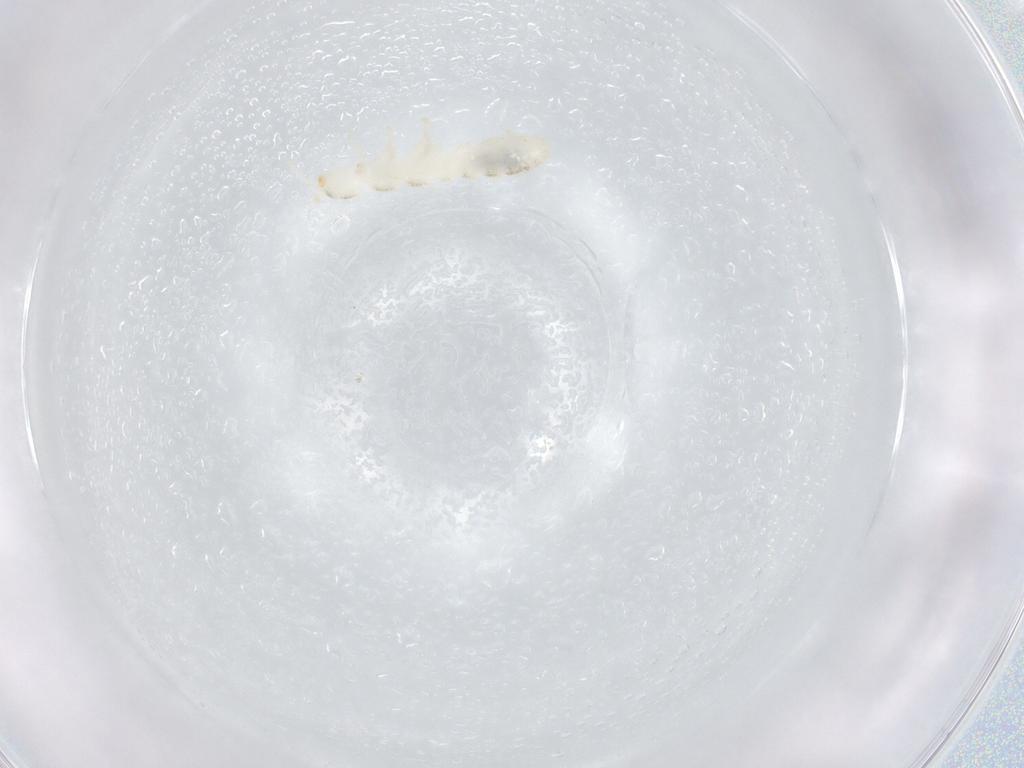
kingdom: Animalia
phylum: Arthropoda
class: Collembola
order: Entomobryomorpha
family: Isotomidae
